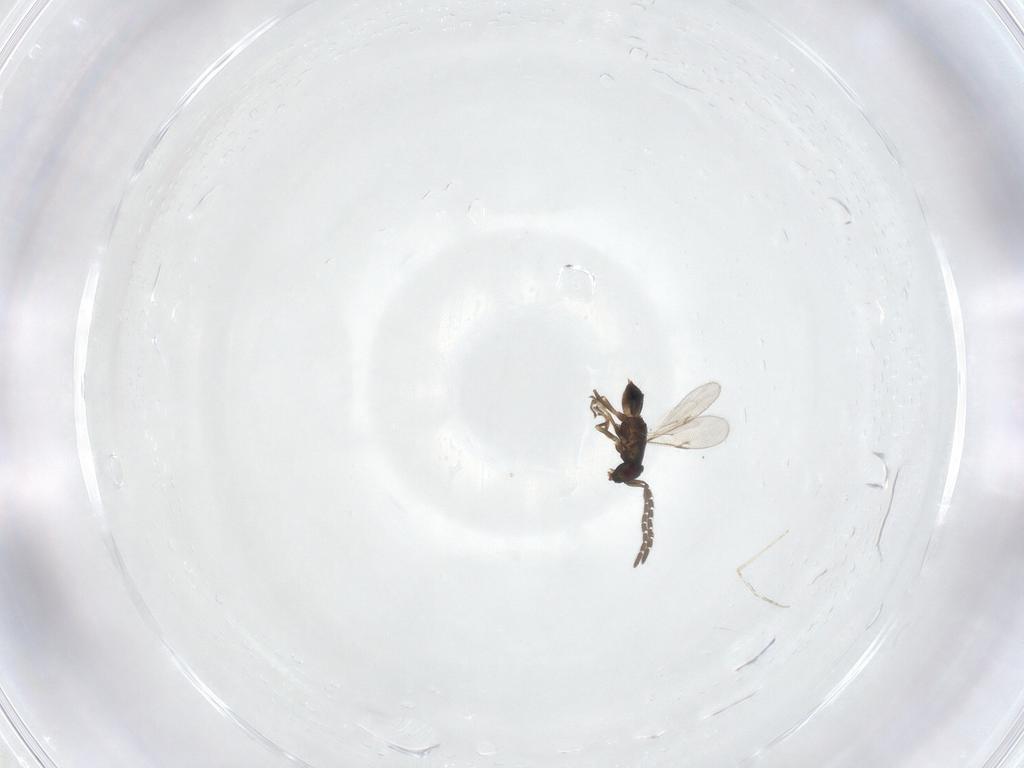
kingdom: Animalia
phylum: Arthropoda
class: Insecta
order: Hymenoptera
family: Encyrtidae
